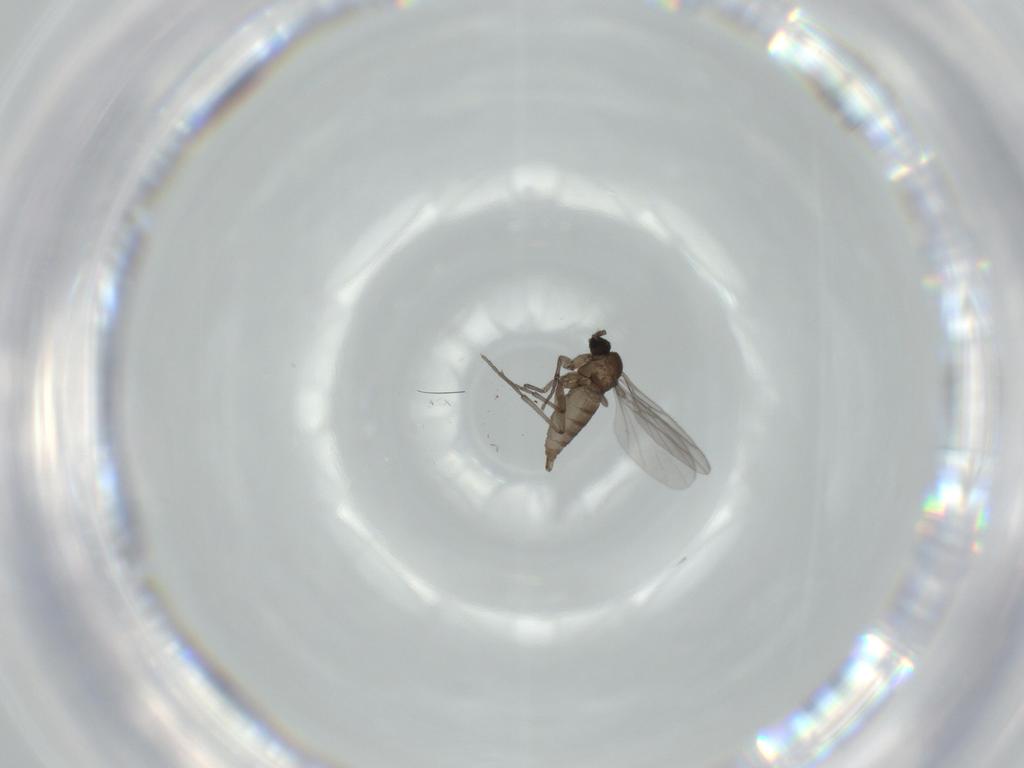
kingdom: Animalia
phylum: Arthropoda
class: Insecta
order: Diptera
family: Sciaridae
